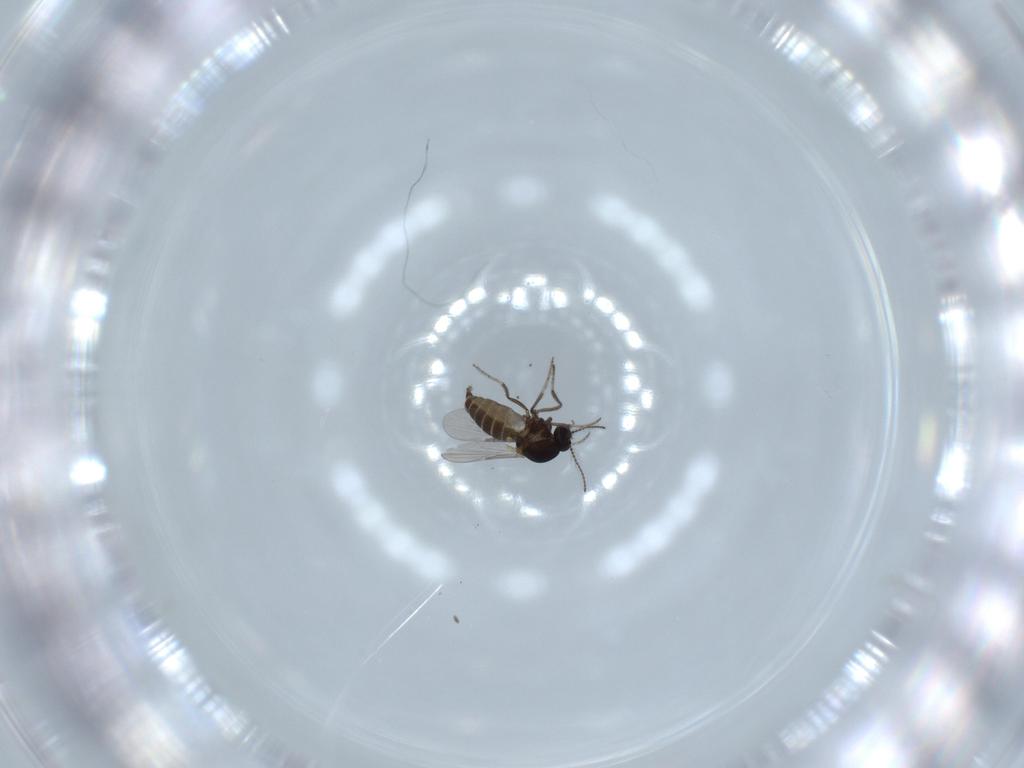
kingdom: Animalia
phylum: Arthropoda
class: Insecta
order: Diptera
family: Ceratopogonidae
